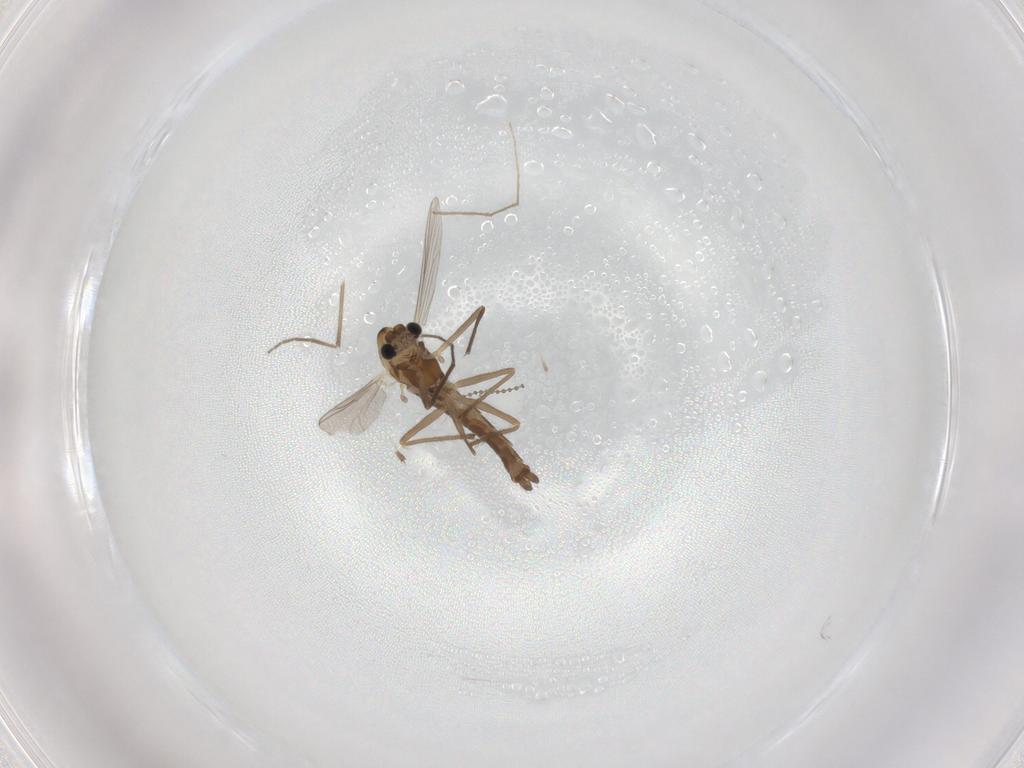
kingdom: Animalia
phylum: Arthropoda
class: Insecta
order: Diptera
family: Chironomidae
